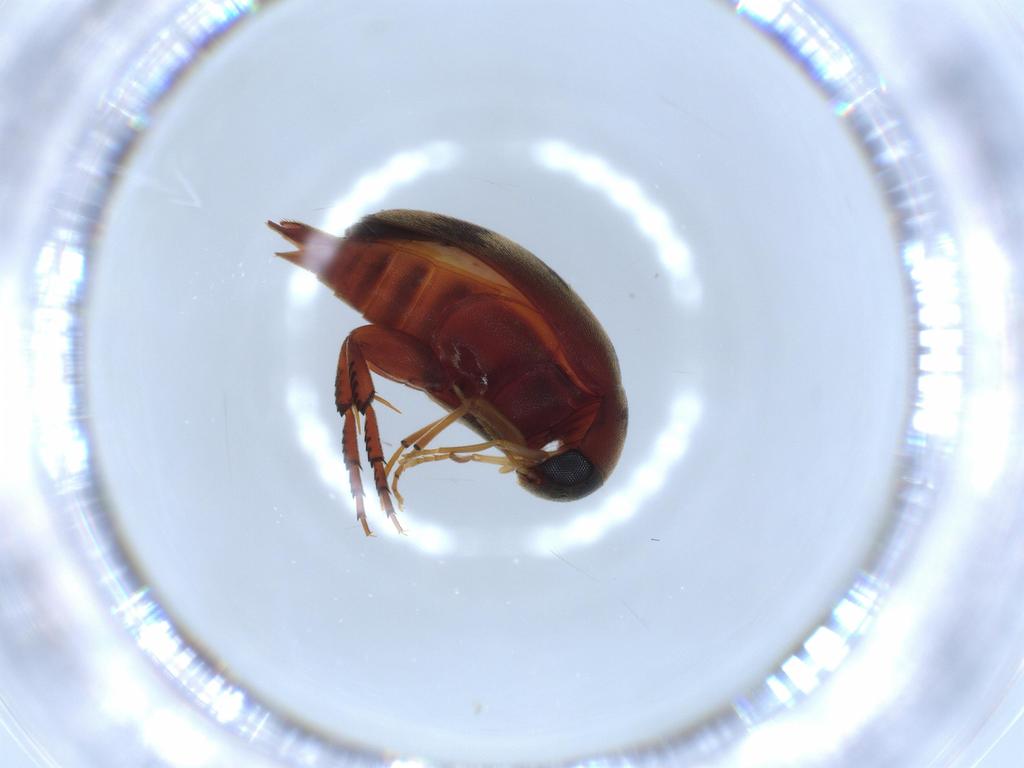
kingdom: Animalia
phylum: Arthropoda
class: Insecta
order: Coleoptera
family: Mordellidae
